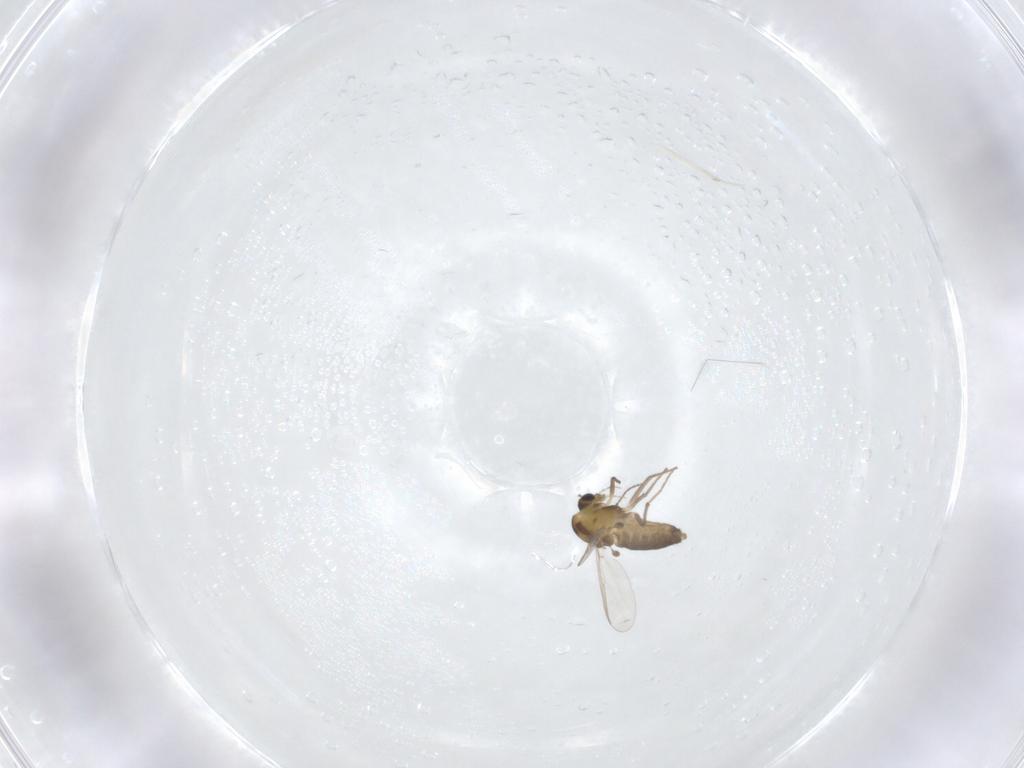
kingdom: Animalia
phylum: Arthropoda
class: Insecta
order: Diptera
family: Chironomidae
